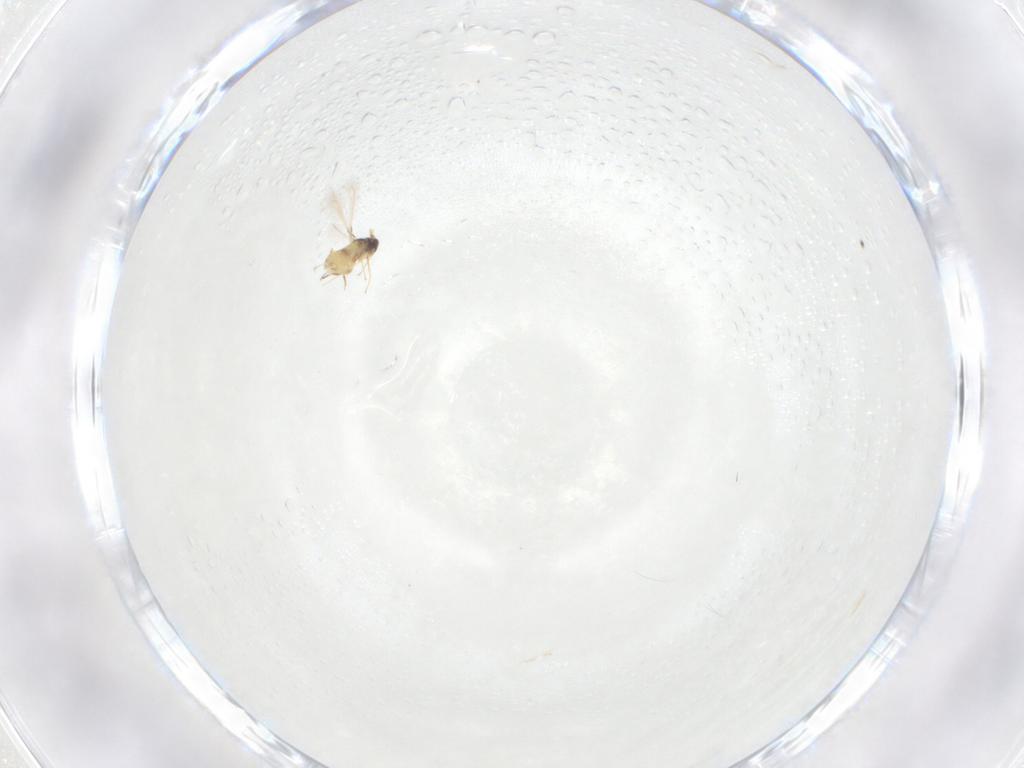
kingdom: Animalia
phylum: Arthropoda
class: Insecta
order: Hymenoptera
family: Mymaridae
